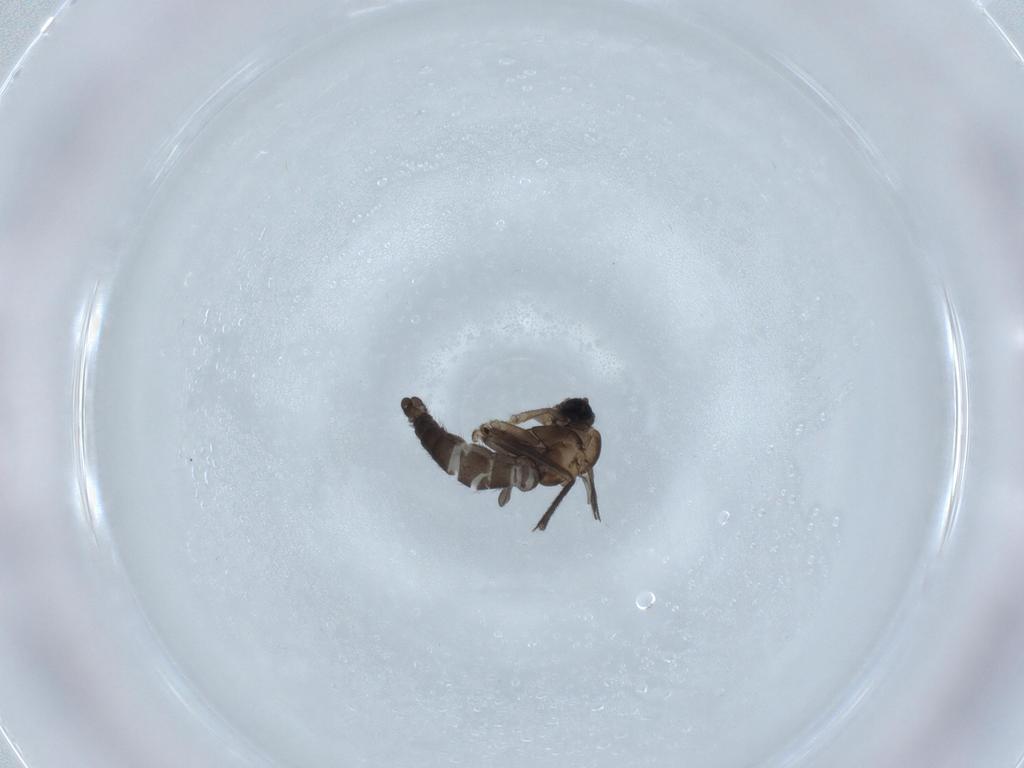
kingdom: Animalia
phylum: Arthropoda
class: Insecta
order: Diptera
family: Sciaridae
